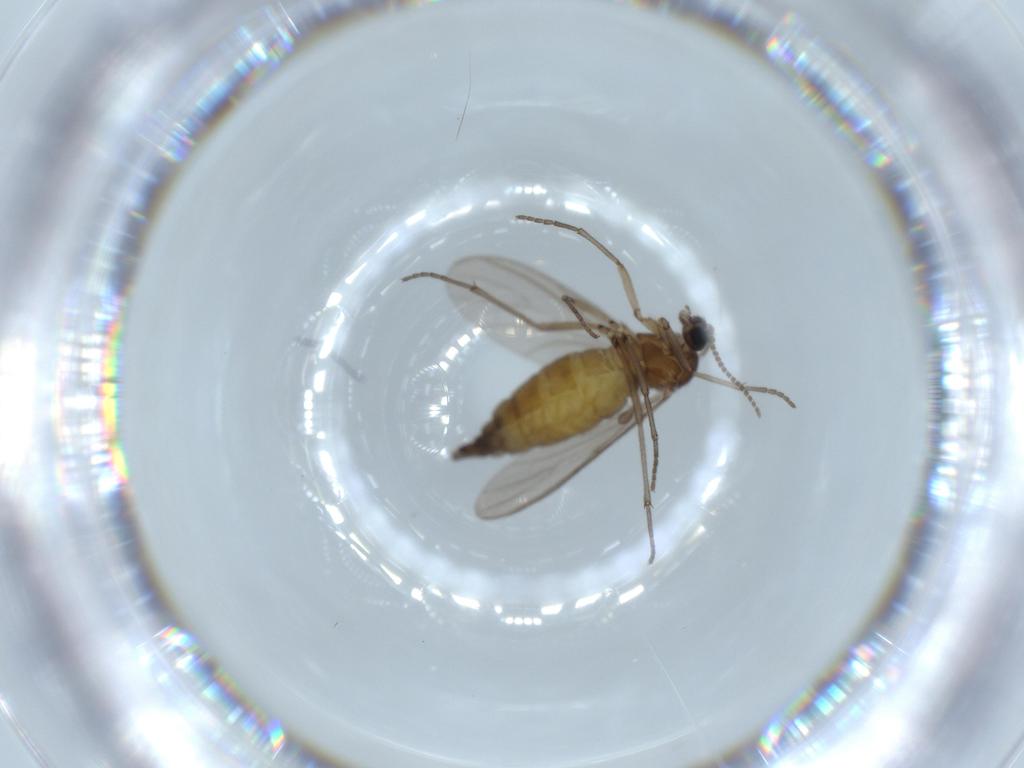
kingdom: Animalia
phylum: Arthropoda
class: Insecta
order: Diptera
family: Sciaridae
